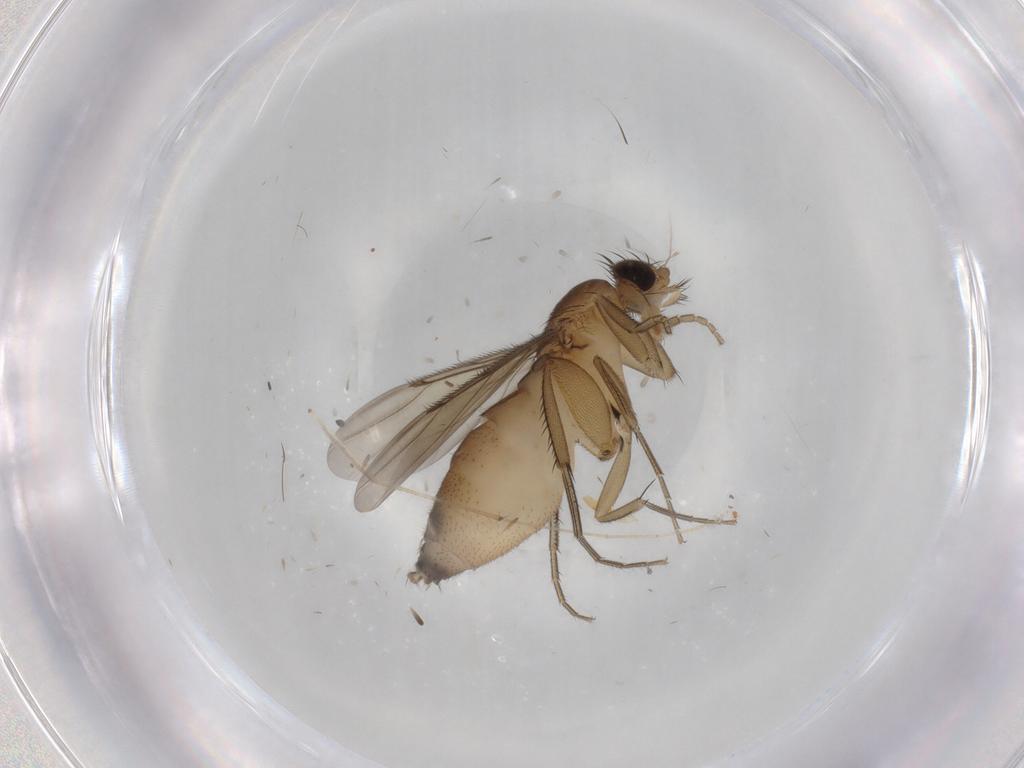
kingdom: Animalia
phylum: Arthropoda
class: Insecta
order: Diptera
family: Cecidomyiidae
